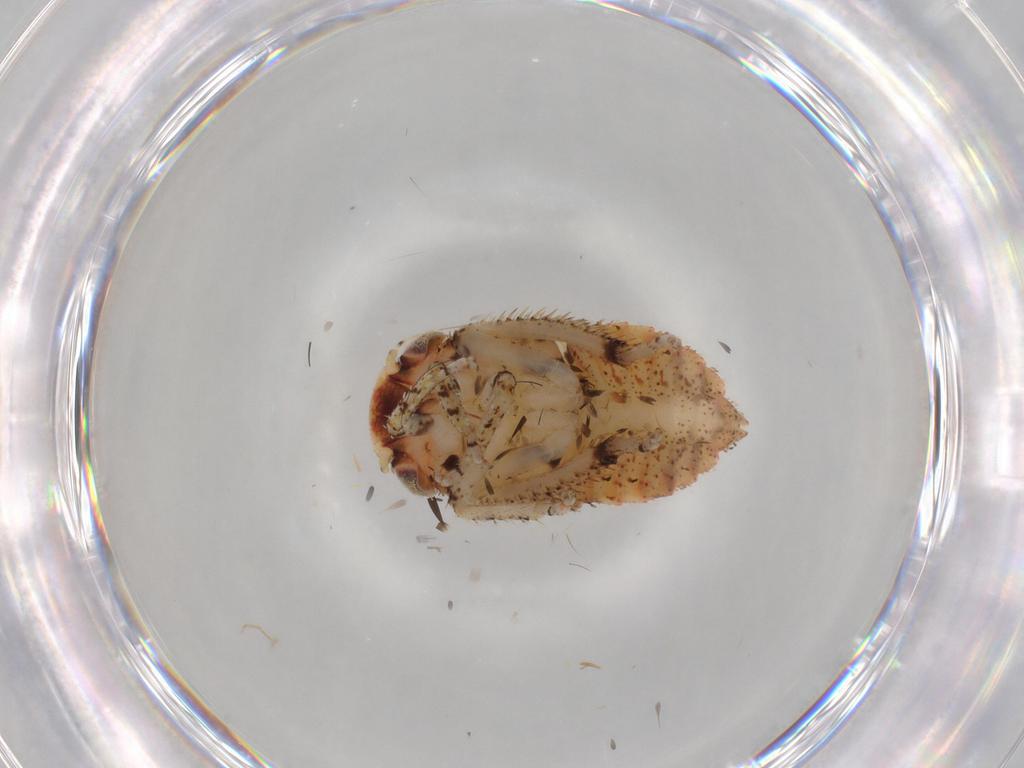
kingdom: Animalia
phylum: Arthropoda
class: Insecta
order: Hemiptera
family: Cicadellidae
